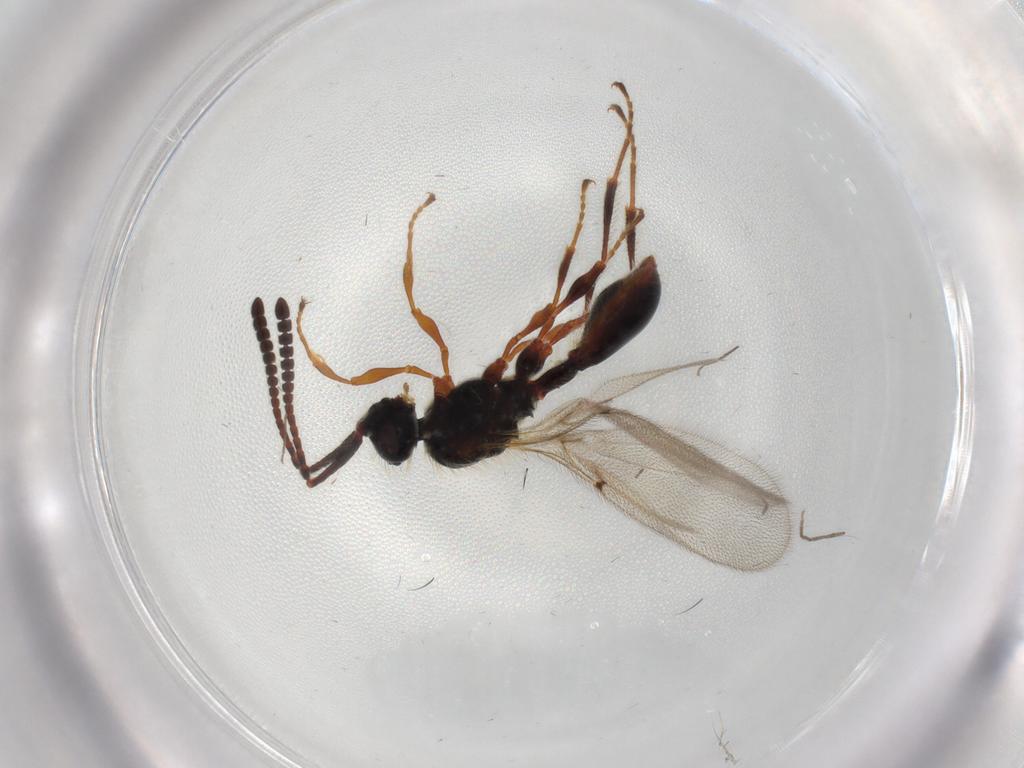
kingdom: Animalia
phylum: Arthropoda
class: Insecta
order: Hymenoptera
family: Diapriidae
